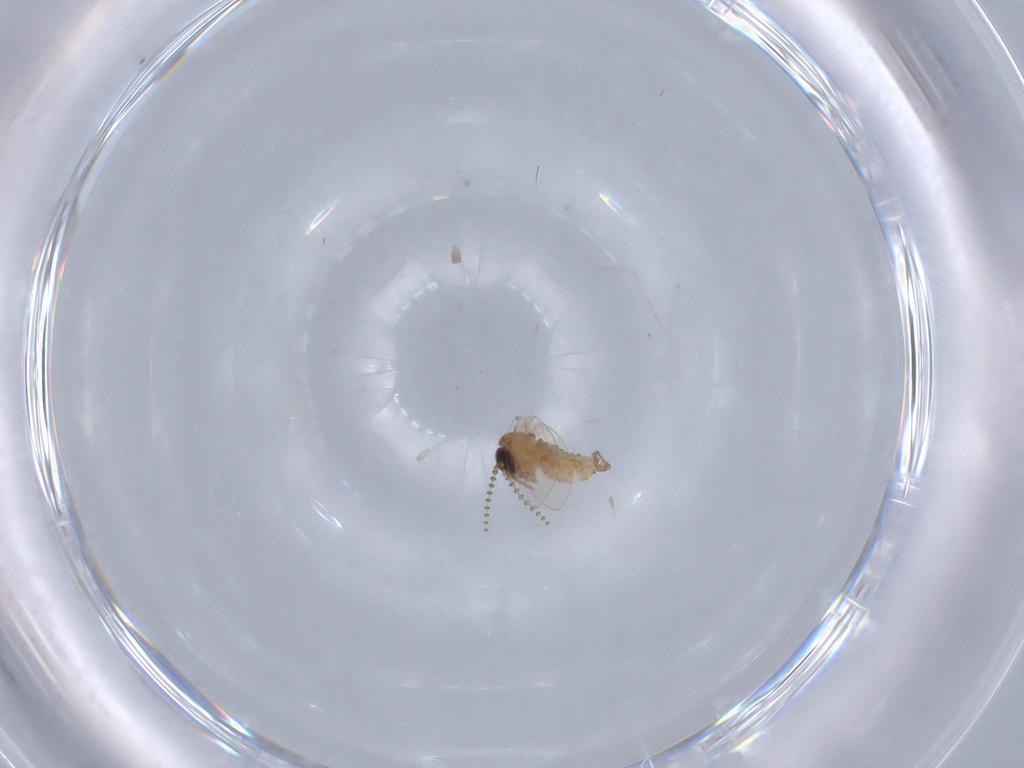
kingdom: Animalia
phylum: Arthropoda
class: Insecta
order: Diptera
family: Psychodidae
